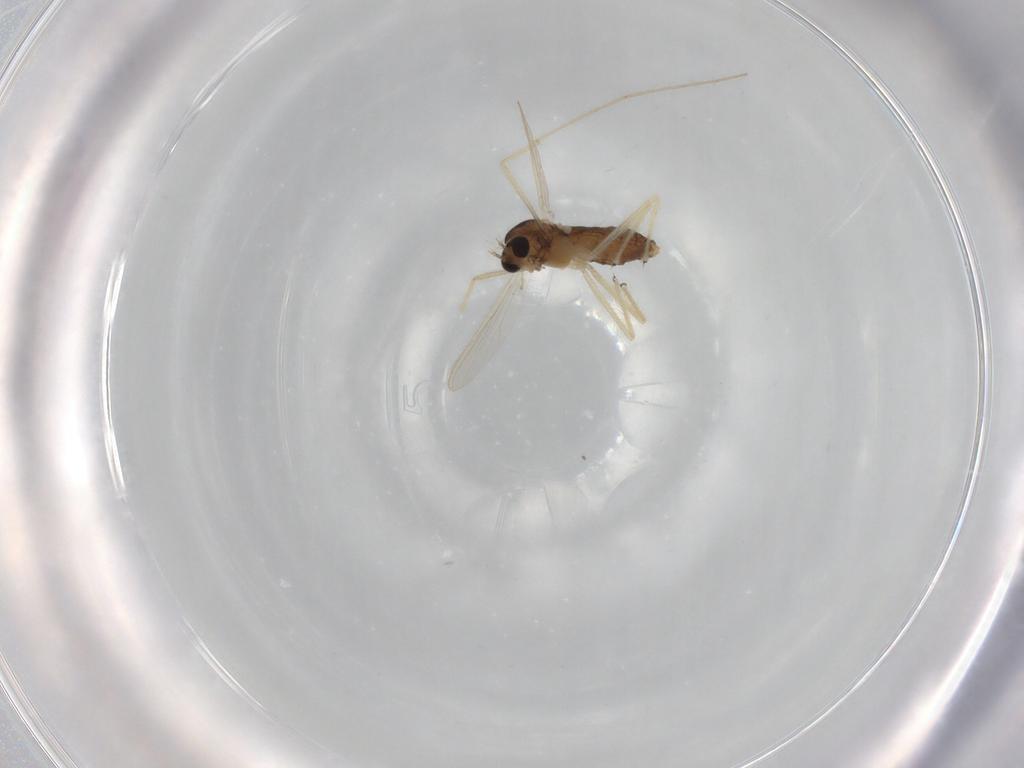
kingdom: Animalia
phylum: Arthropoda
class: Insecta
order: Diptera
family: Chironomidae
